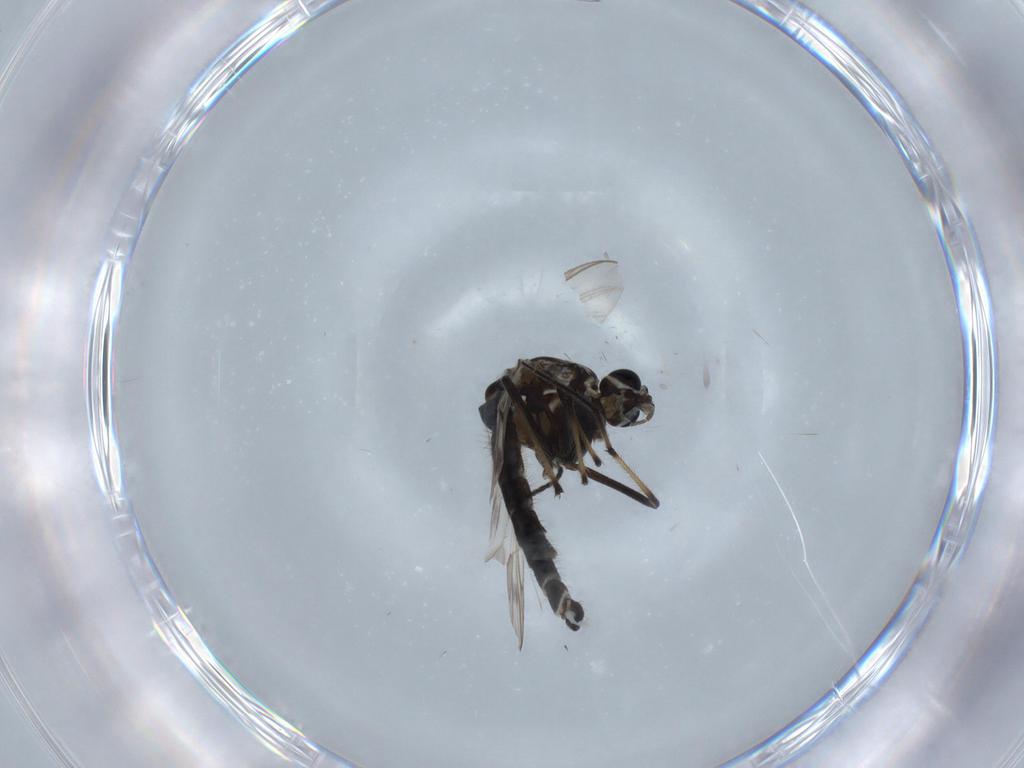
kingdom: Animalia
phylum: Arthropoda
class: Insecta
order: Diptera
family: Chironomidae
